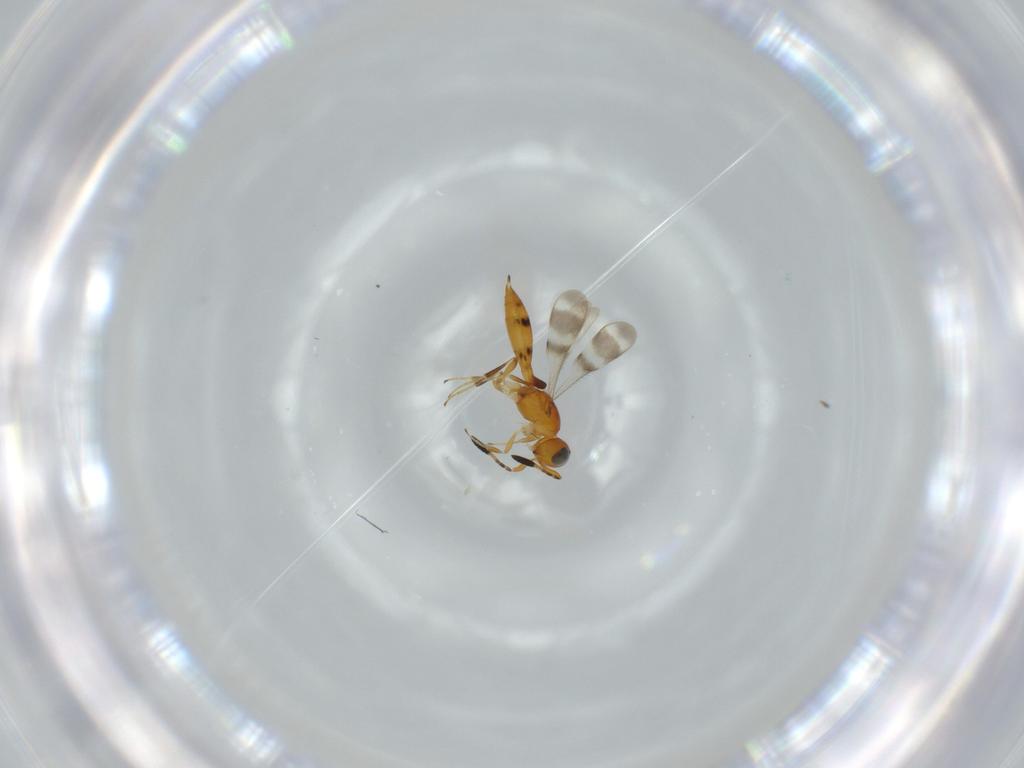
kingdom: Animalia
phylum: Arthropoda
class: Insecta
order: Hymenoptera
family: Scelionidae
